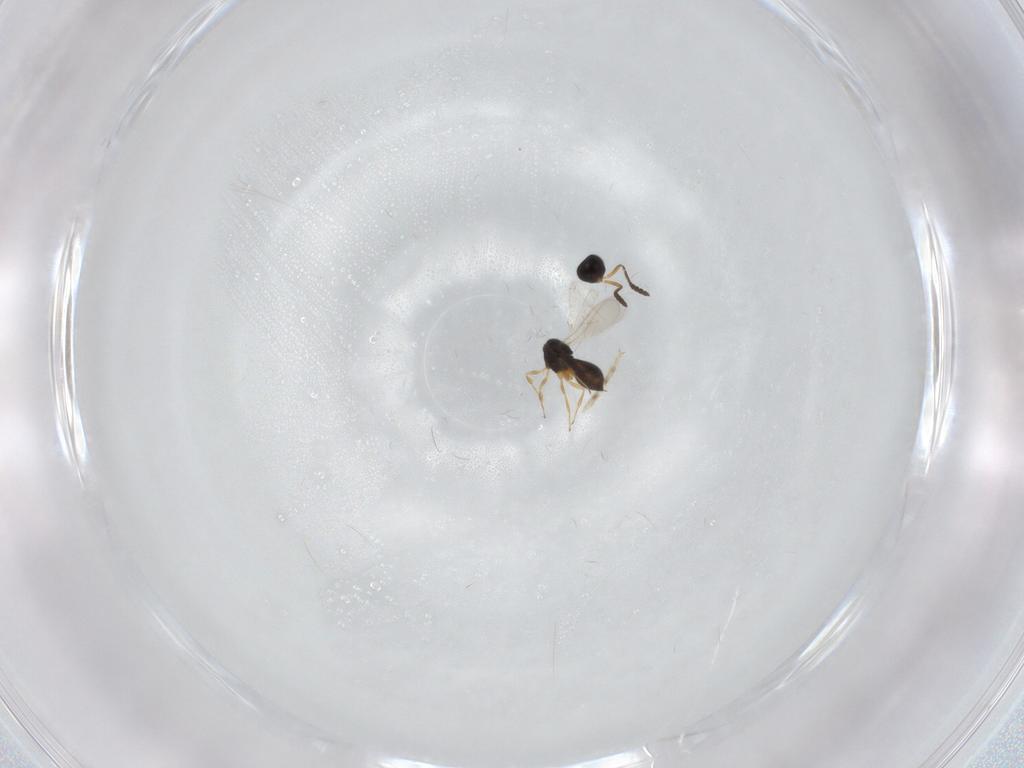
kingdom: Animalia
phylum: Arthropoda
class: Insecta
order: Hymenoptera
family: Scelionidae
